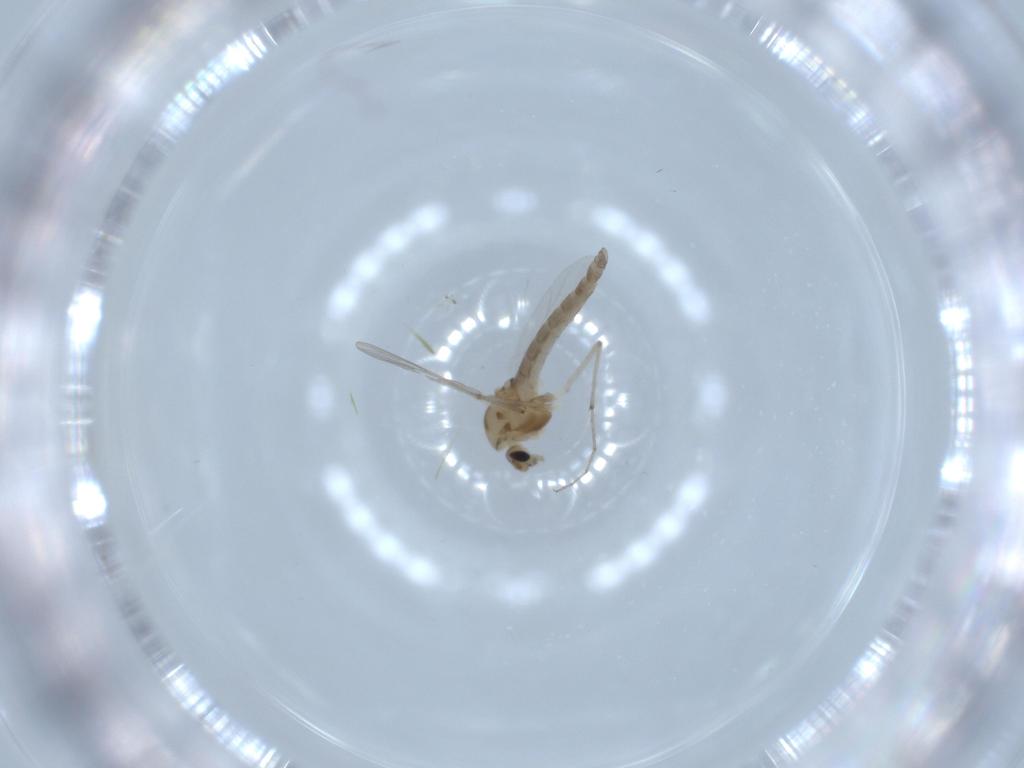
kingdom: Animalia
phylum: Arthropoda
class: Insecta
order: Diptera
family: Chironomidae
